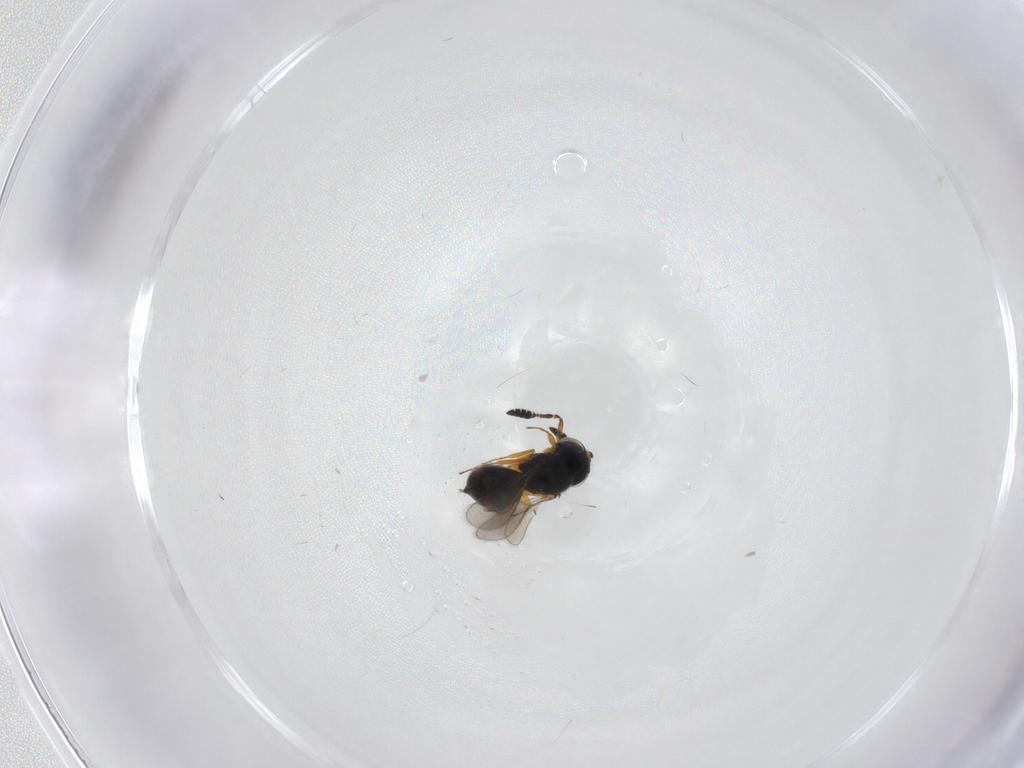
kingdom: Animalia
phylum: Arthropoda
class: Insecta
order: Hymenoptera
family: Scelionidae
